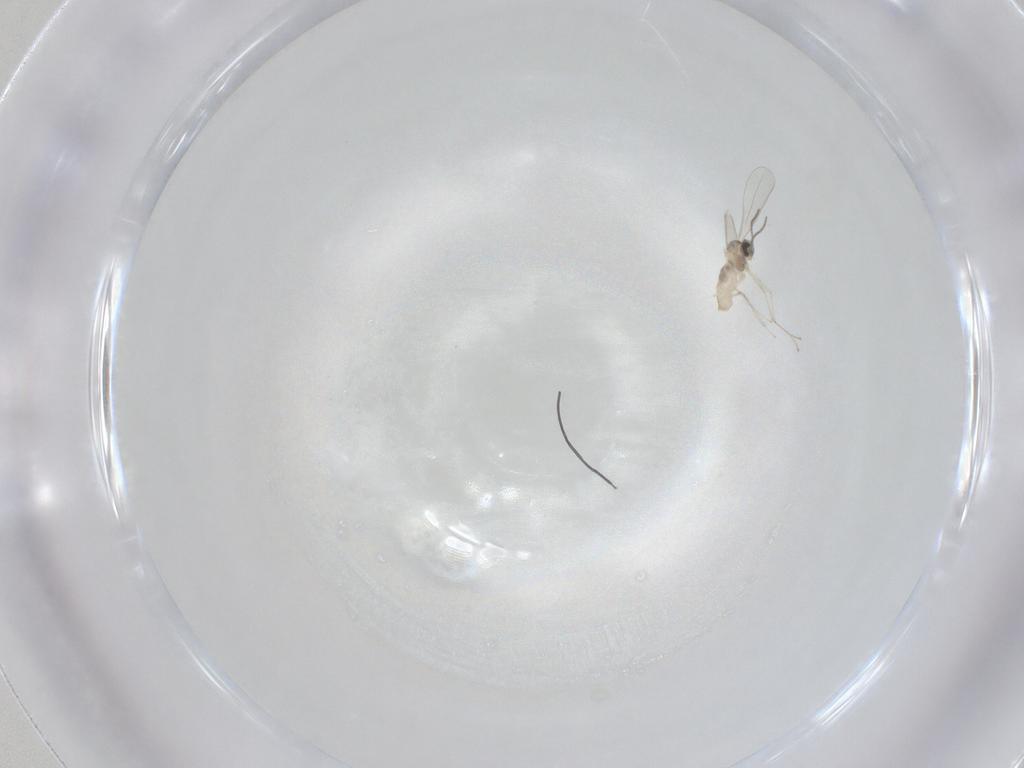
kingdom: Animalia
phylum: Arthropoda
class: Insecta
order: Diptera
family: Cecidomyiidae
